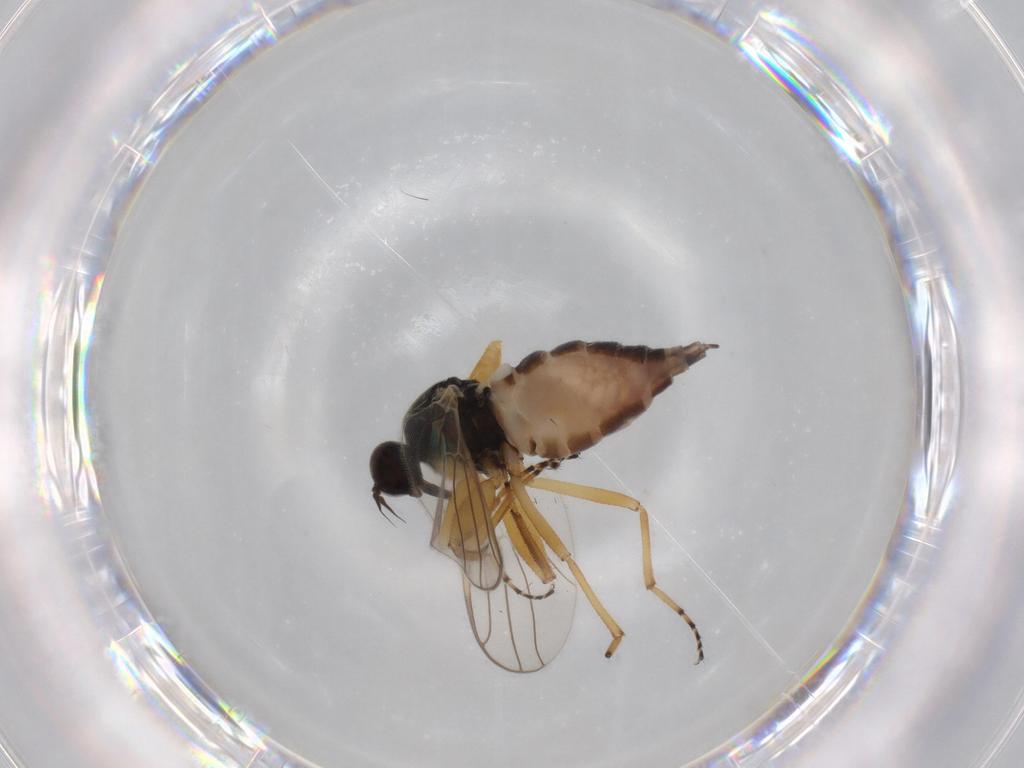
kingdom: Animalia
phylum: Arthropoda
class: Insecta
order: Diptera
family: Hybotidae
